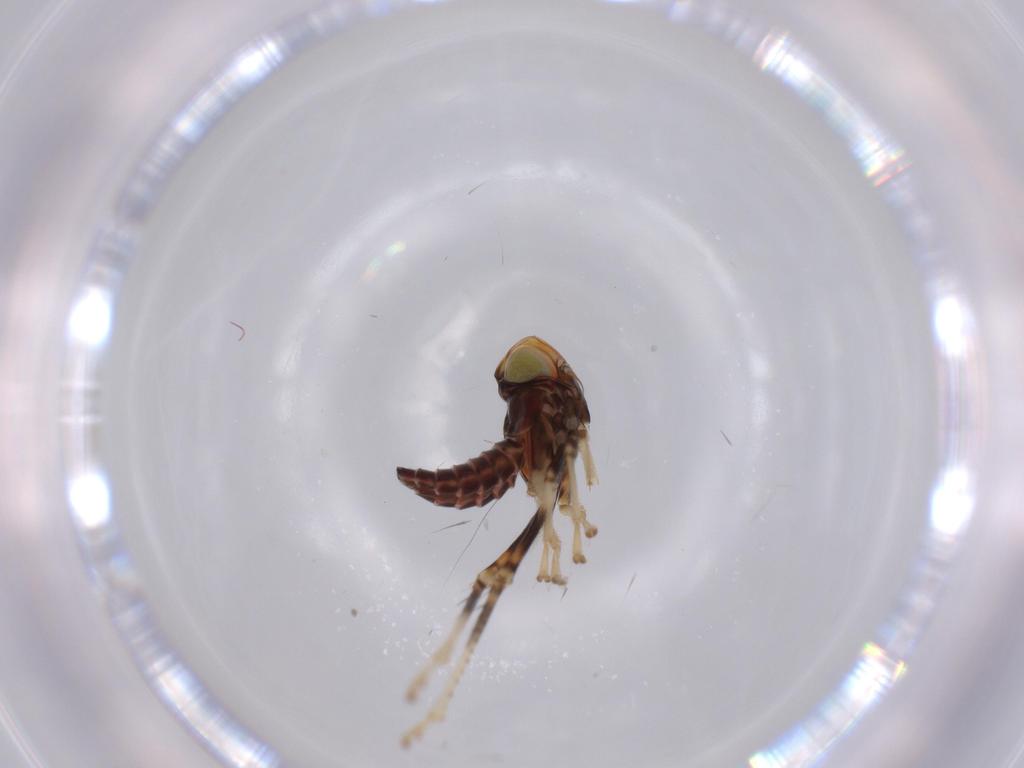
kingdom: Animalia
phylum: Arthropoda
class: Insecta
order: Hemiptera
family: Cicadellidae
